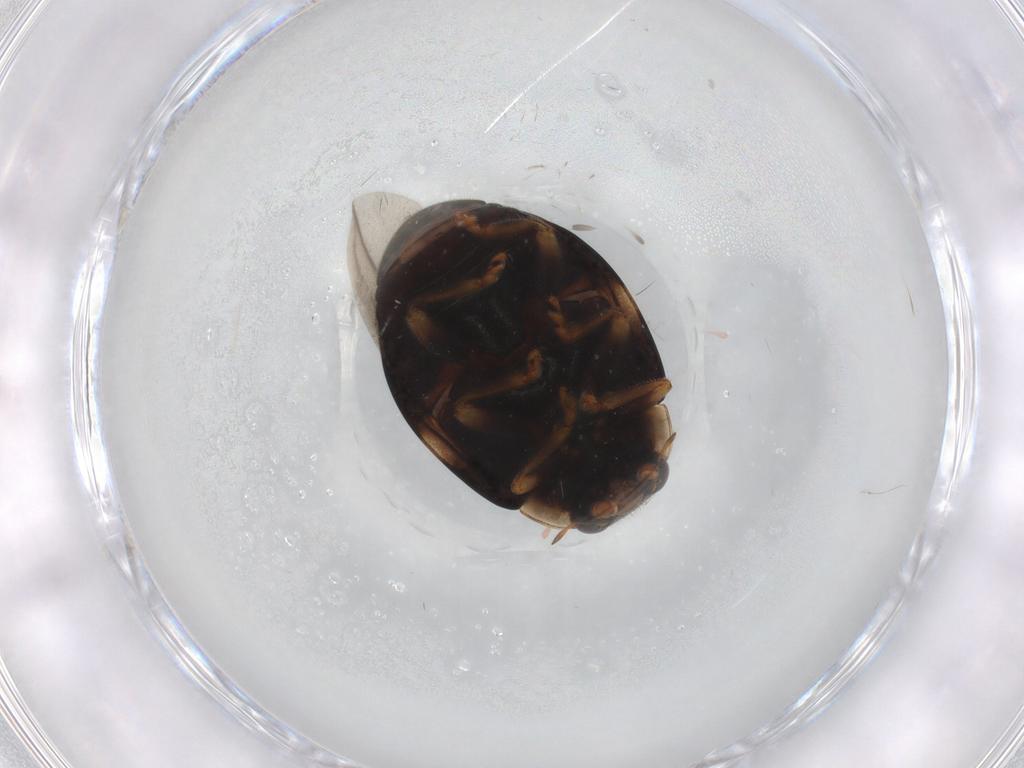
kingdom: Animalia
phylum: Arthropoda
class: Insecta
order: Coleoptera
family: Coccinellidae
